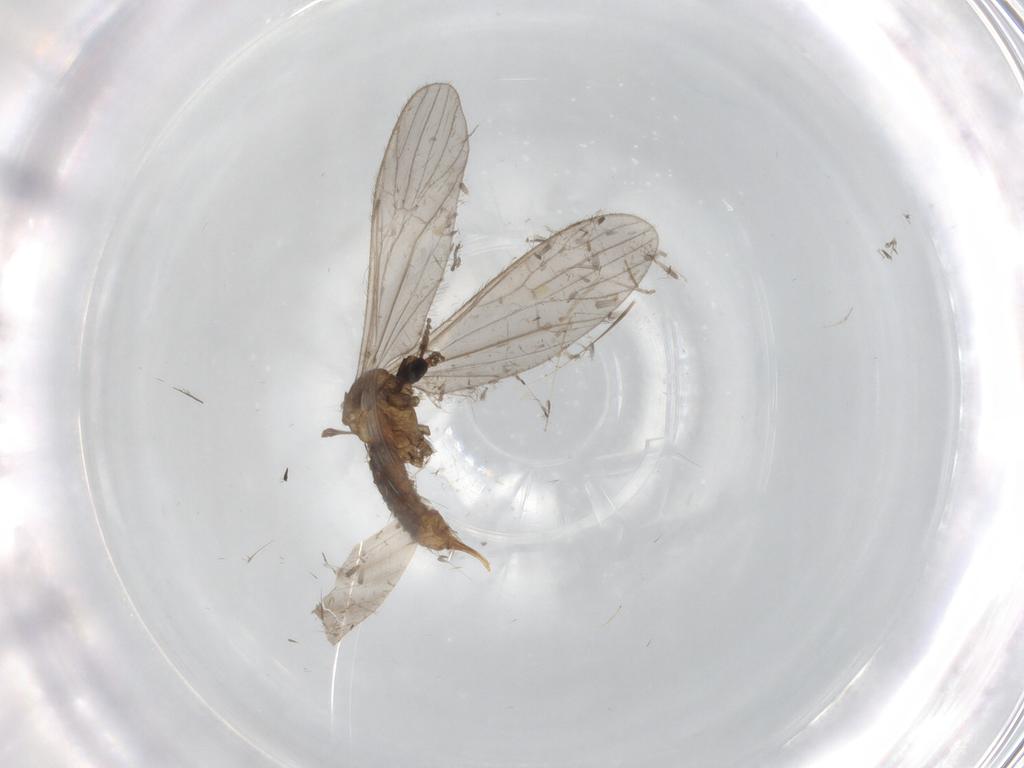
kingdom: Animalia
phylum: Arthropoda
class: Insecta
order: Diptera
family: Limoniidae
